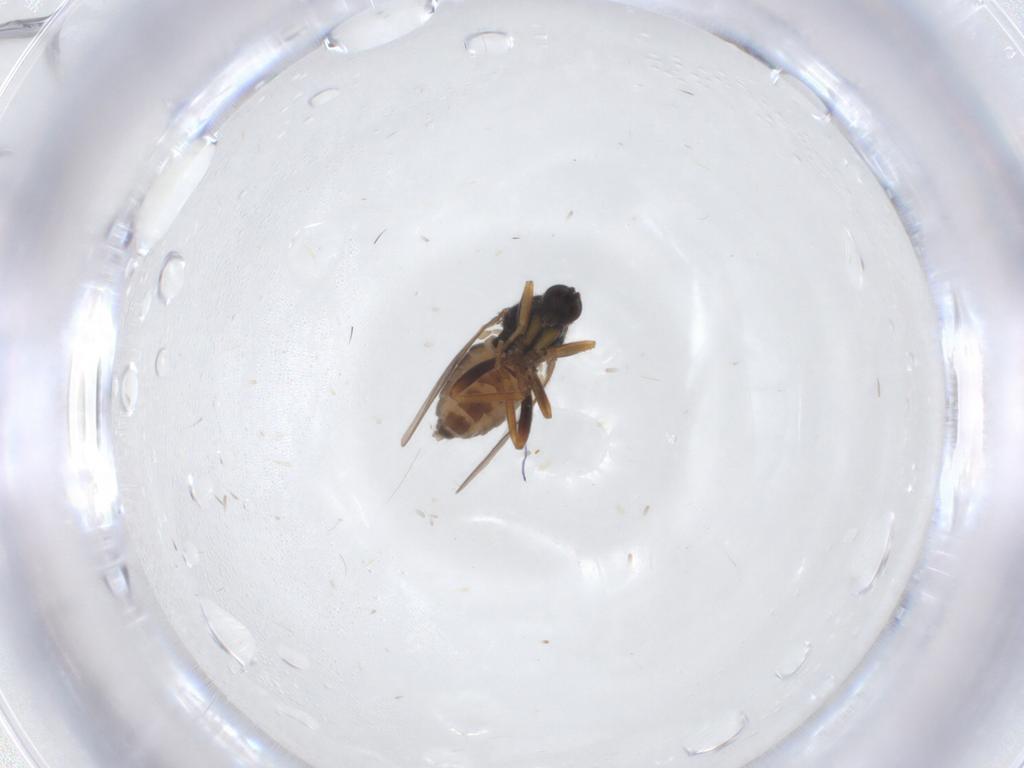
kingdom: Animalia
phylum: Arthropoda
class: Insecta
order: Diptera
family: Hybotidae
